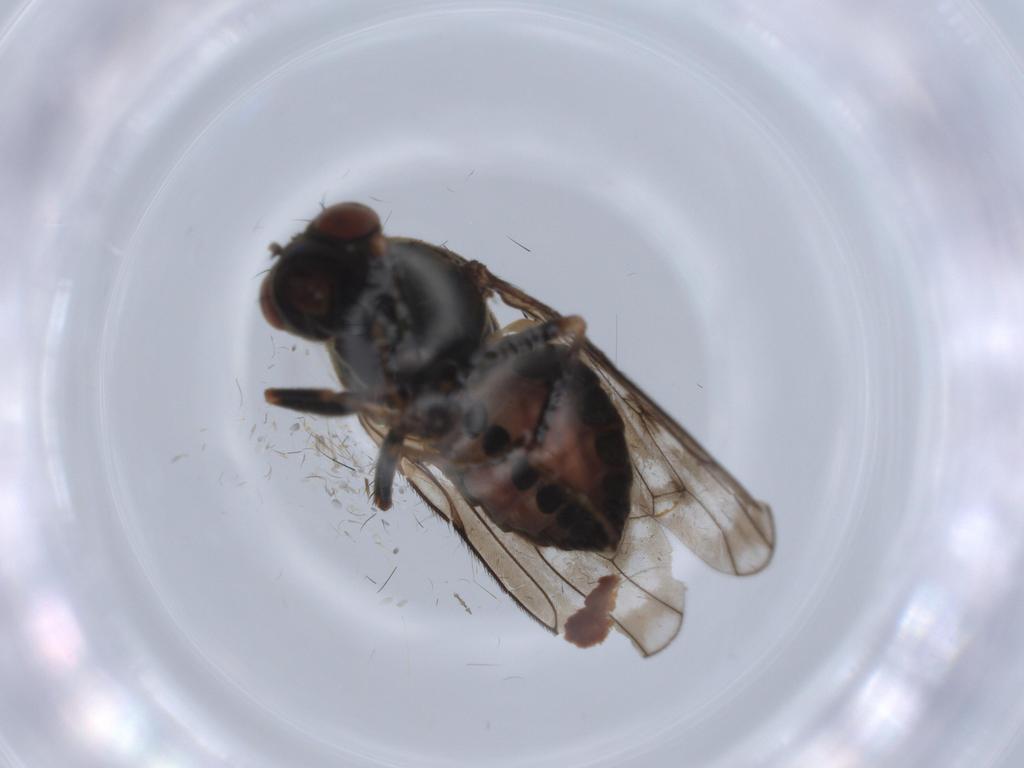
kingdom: Animalia
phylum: Arthropoda
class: Insecta
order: Diptera
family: Ephydridae
